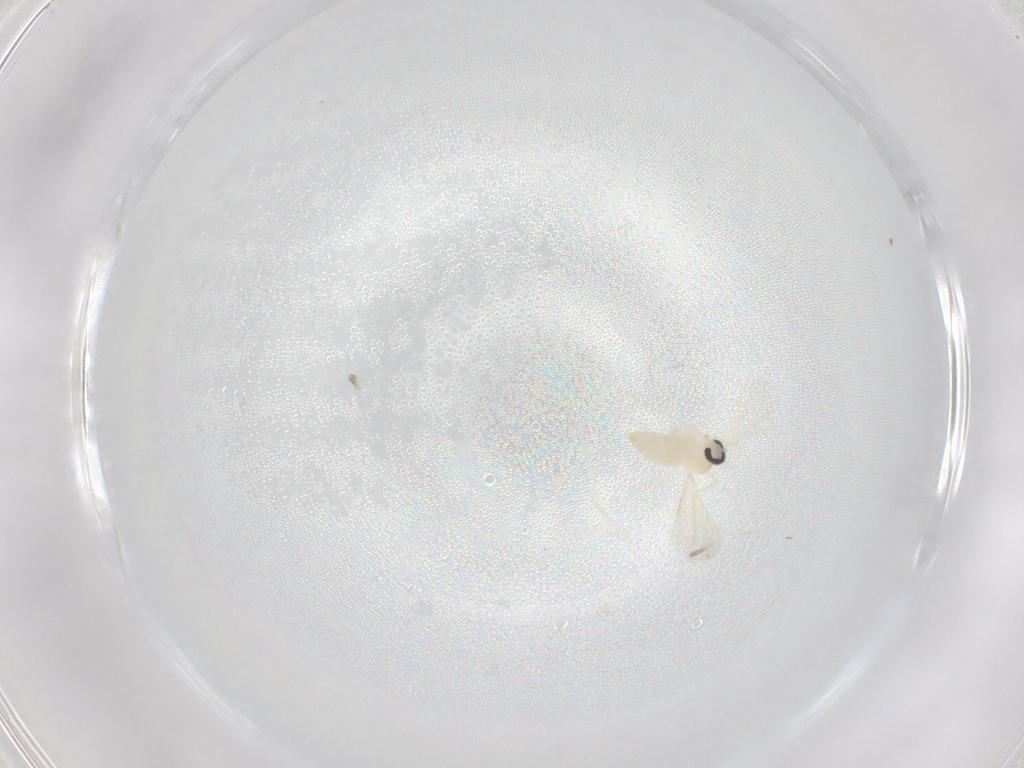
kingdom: Animalia
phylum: Arthropoda
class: Insecta
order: Diptera
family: Cecidomyiidae
